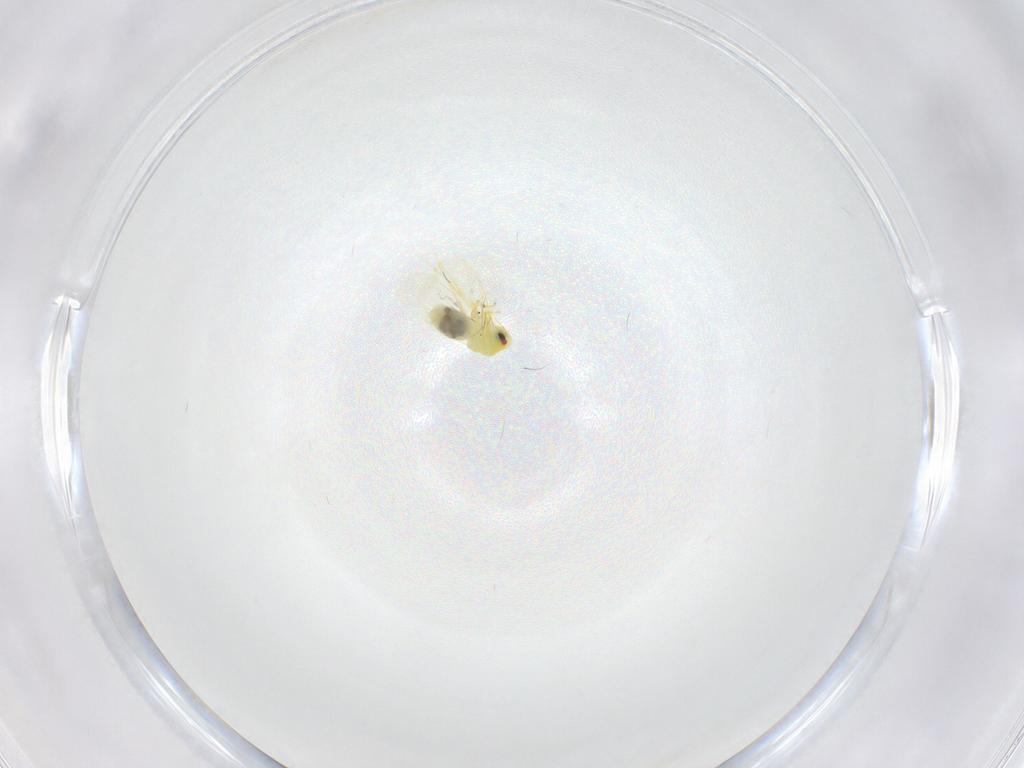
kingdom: Animalia
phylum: Arthropoda
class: Insecta
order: Hemiptera
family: Aleyrodidae
